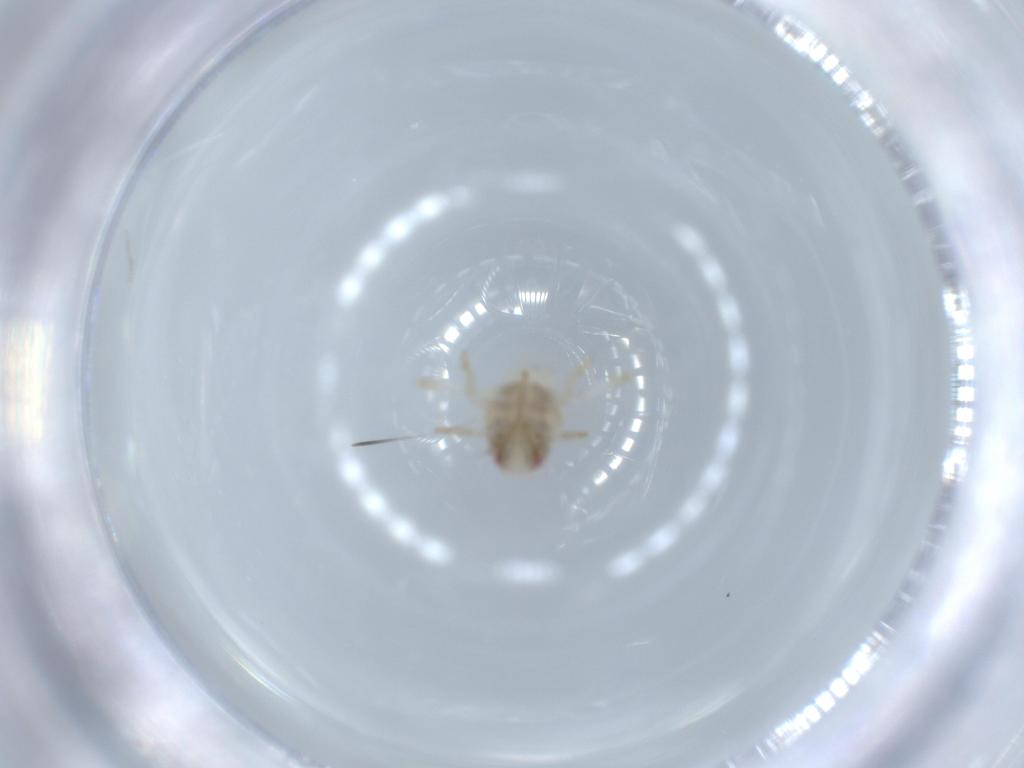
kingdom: Animalia
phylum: Arthropoda
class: Insecta
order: Hemiptera
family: Acanaloniidae
